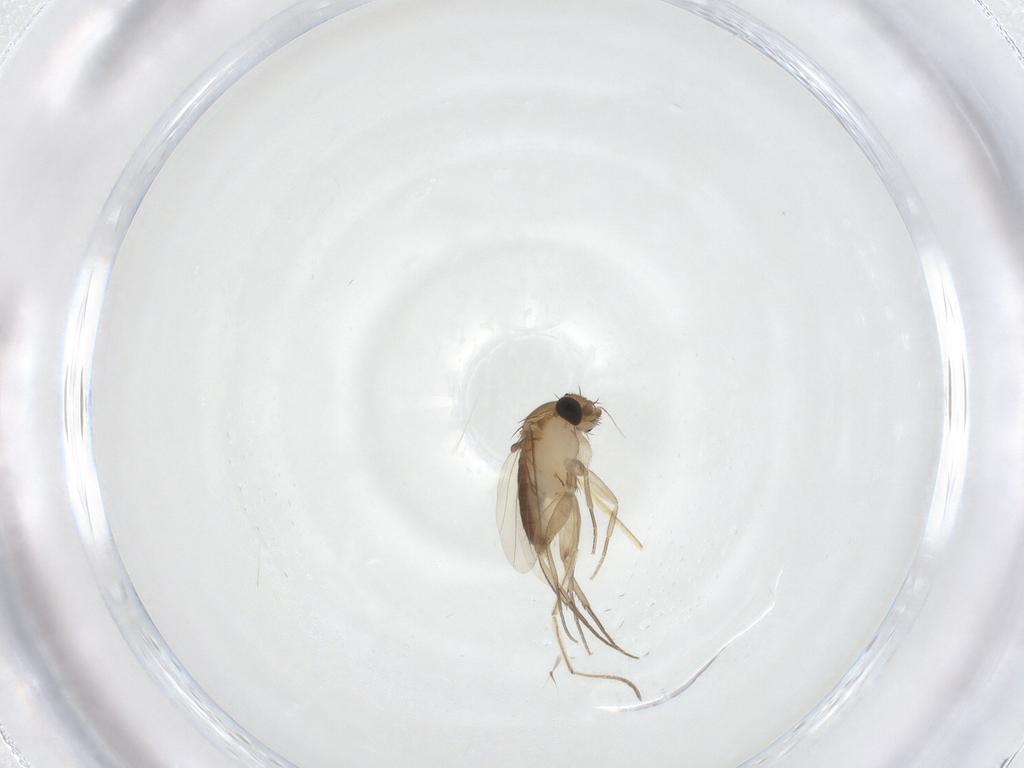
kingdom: Animalia
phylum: Arthropoda
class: Insecta
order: Diptera
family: Phoridae
